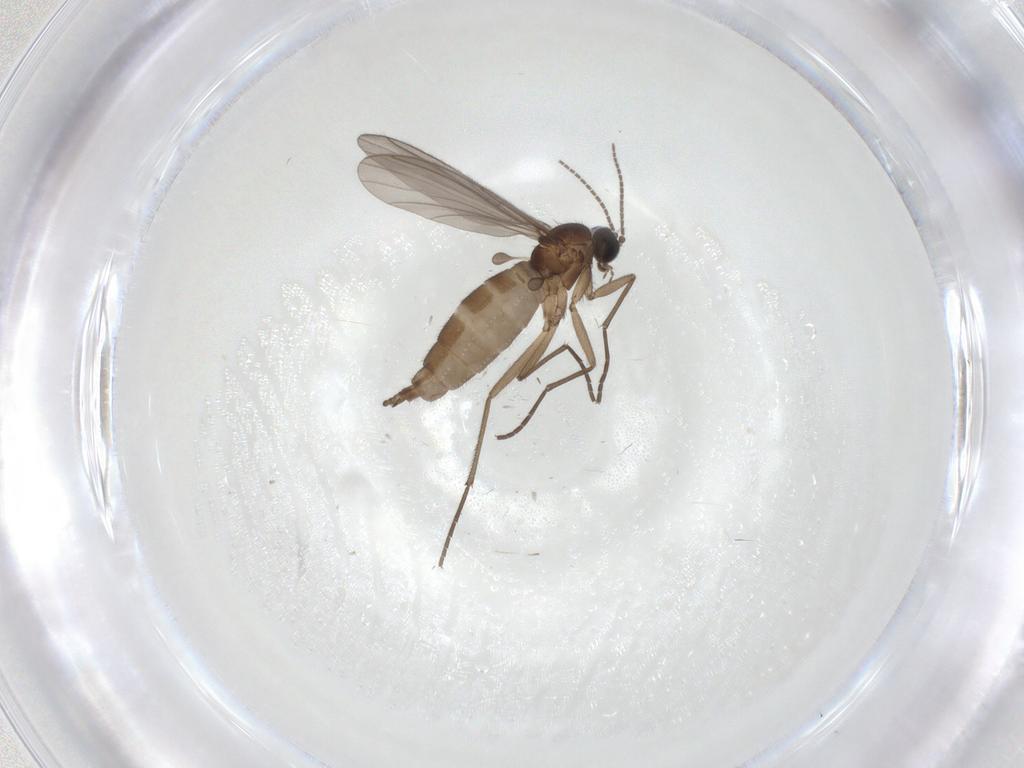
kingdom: Animalia
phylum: Arthropoda
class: Insecta
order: Diptera
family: Sciaridae
